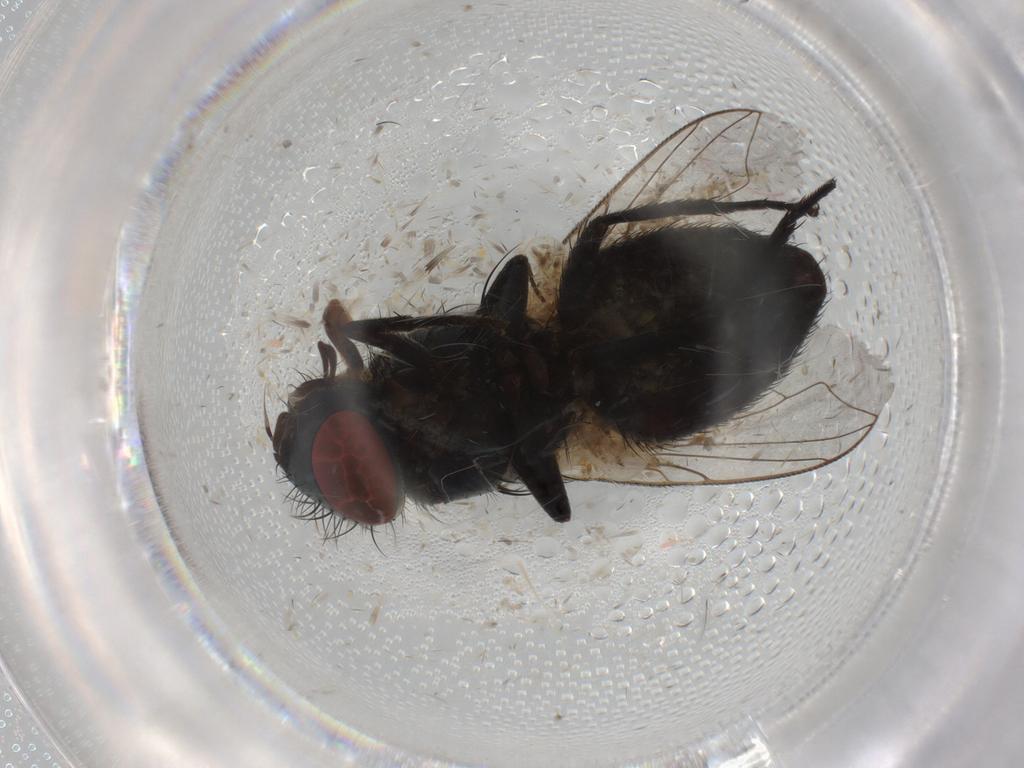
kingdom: Animalia
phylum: Arthropoda
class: Insecta
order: Diptera
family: Sarcophagidae
